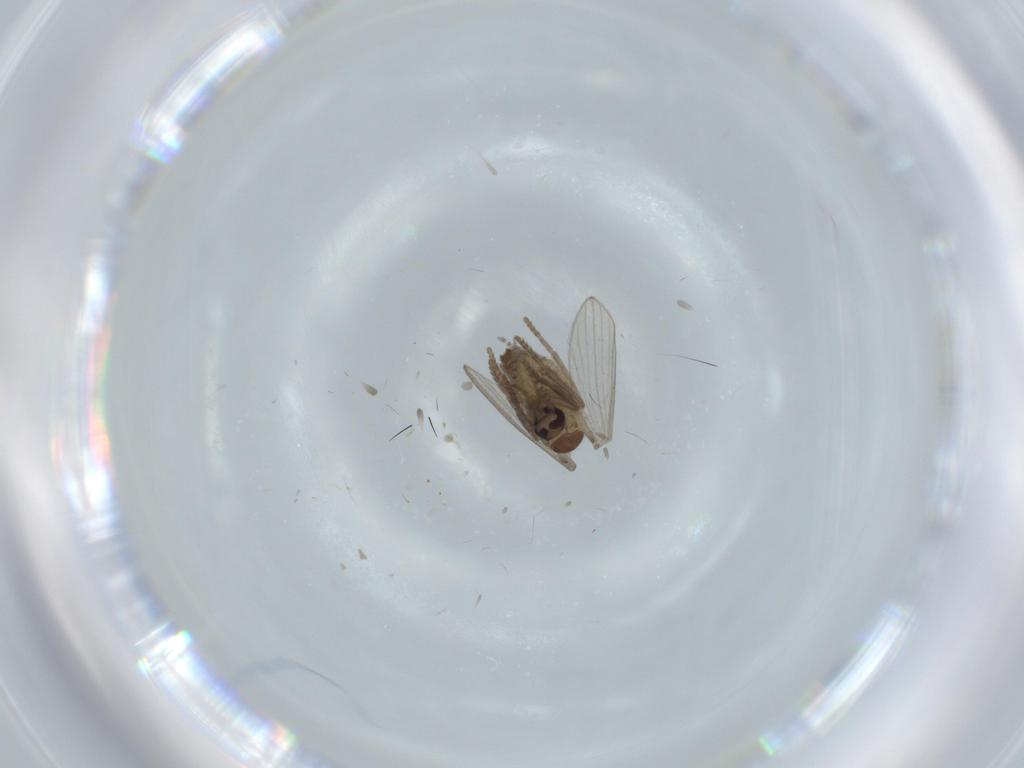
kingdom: Animalia
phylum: Arthropoda
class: Insecta
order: Diptera
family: Psychodidae
